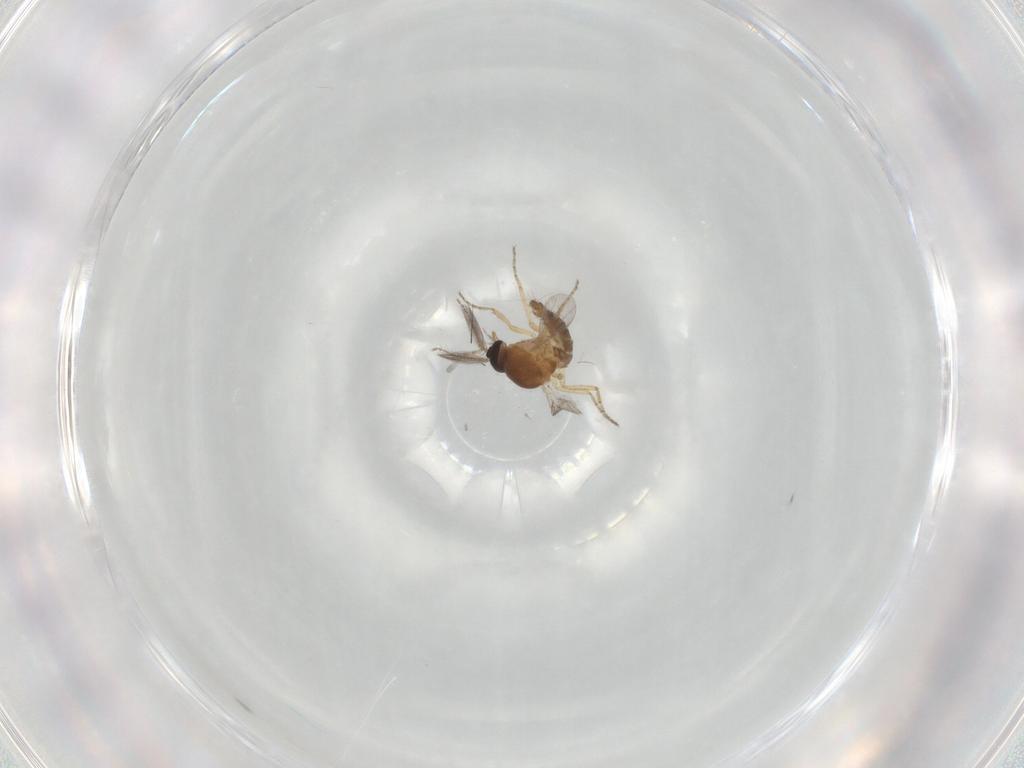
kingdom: Animalia
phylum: Arthropoda
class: Insecta
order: Diptera
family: Ceratopogonidae
